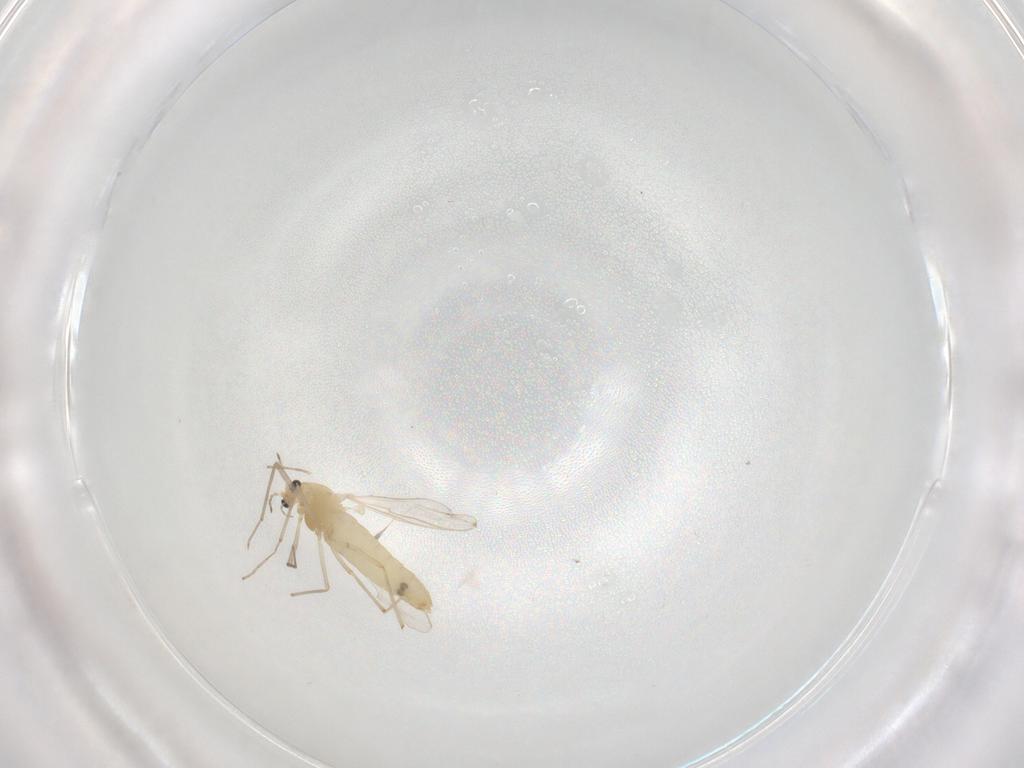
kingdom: Animalia
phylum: Arthropoda
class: Insecta
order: Diptera
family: Chironomidae
